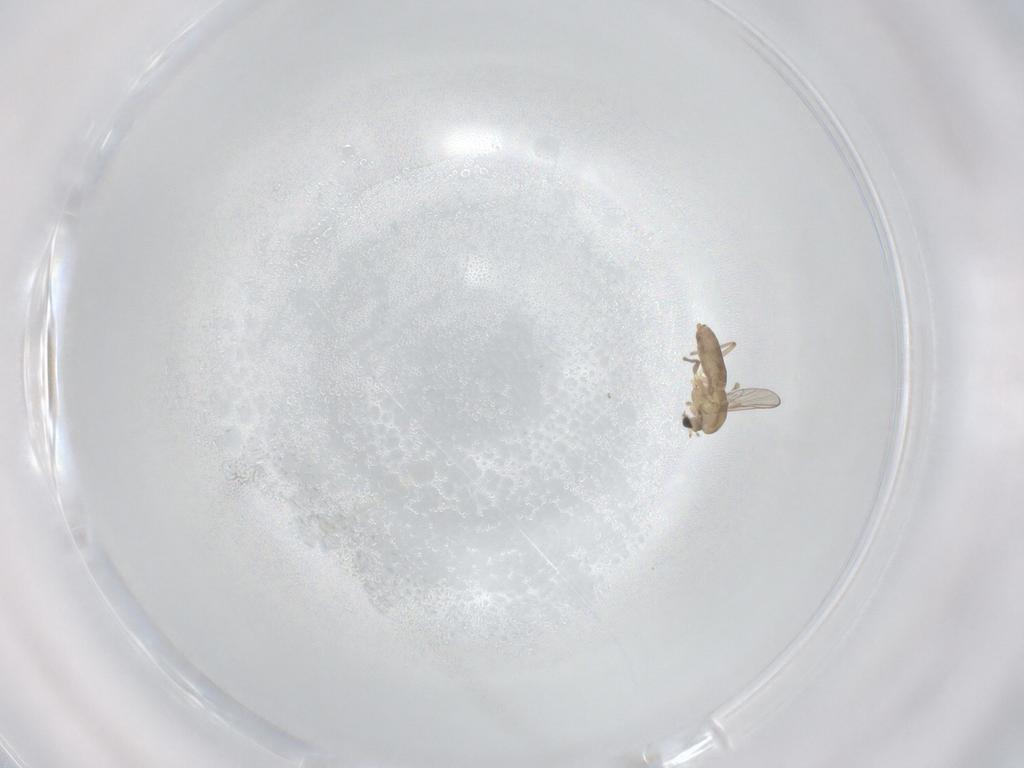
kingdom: Animalia
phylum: Arthropoda
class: Insecta
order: Diptera
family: Chironomidae
